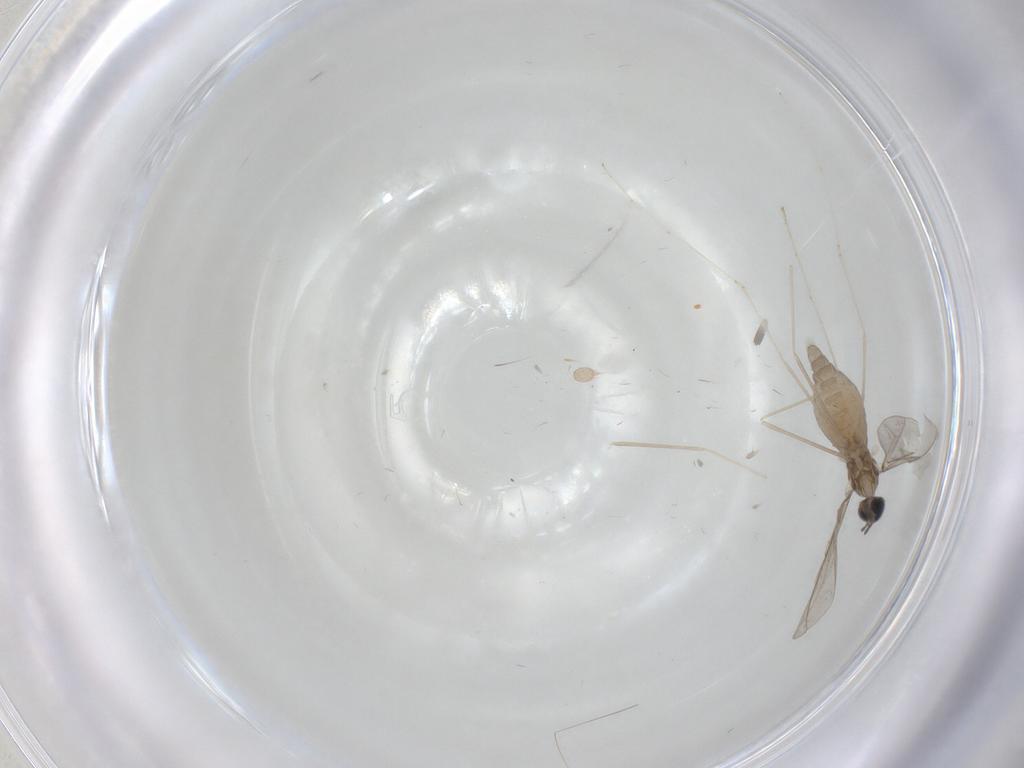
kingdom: Animalia
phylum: Arthropoda
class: Insecta
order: Diptera
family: Cecidomyiidae
